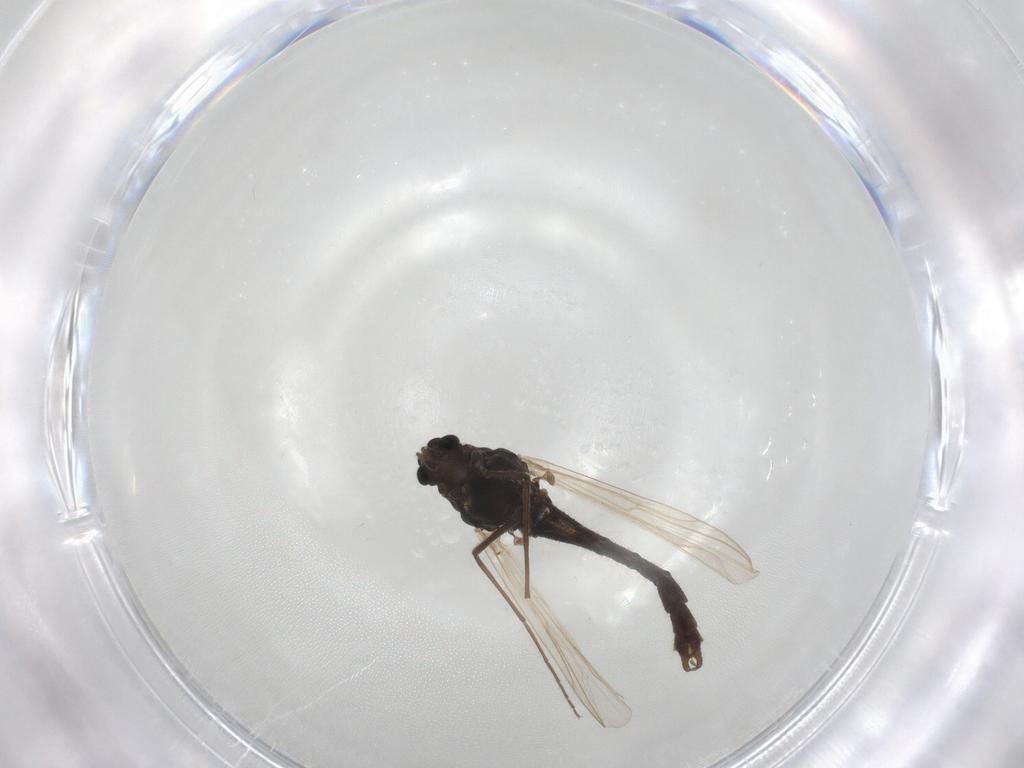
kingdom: Animalia
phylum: Arthropoda
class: Insecta
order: Diptera
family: Chironomidae
